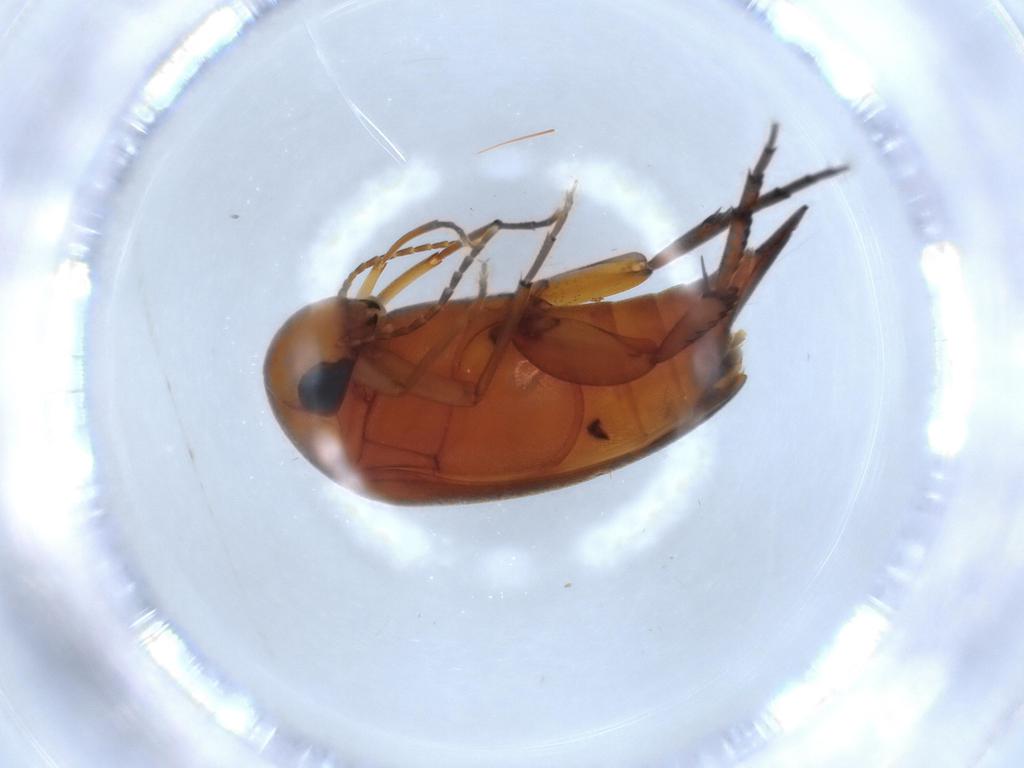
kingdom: Animalia
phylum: Arthropoda
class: Insecta
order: Coleoptera
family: Mordellidae
